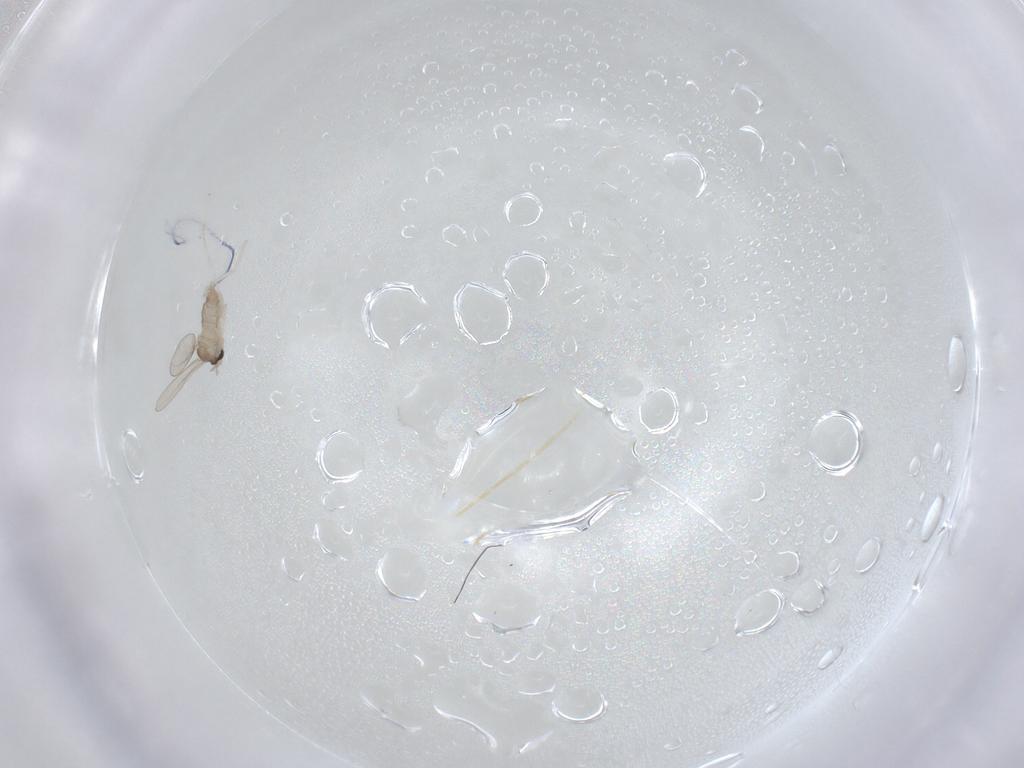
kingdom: Animalia
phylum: Arthropoda
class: Insecta
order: Diptera
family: Cecidomyiidae
